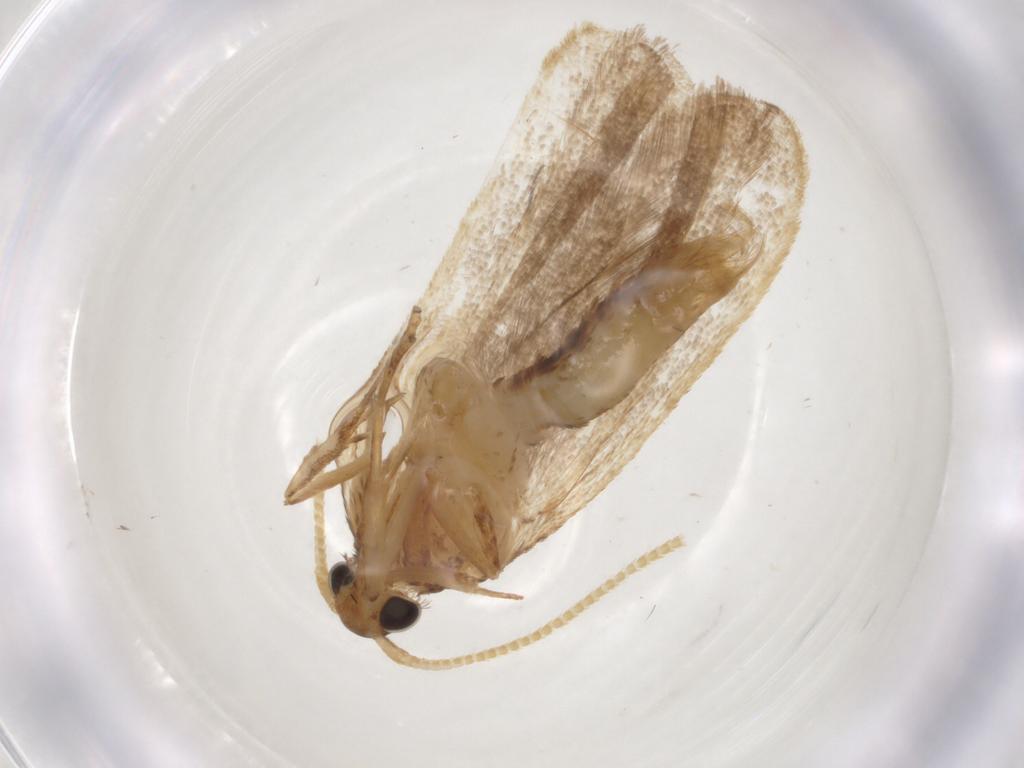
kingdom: Animalia
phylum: Arthropoda
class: Insecta
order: Lepidoptera
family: Lecithoceridae
